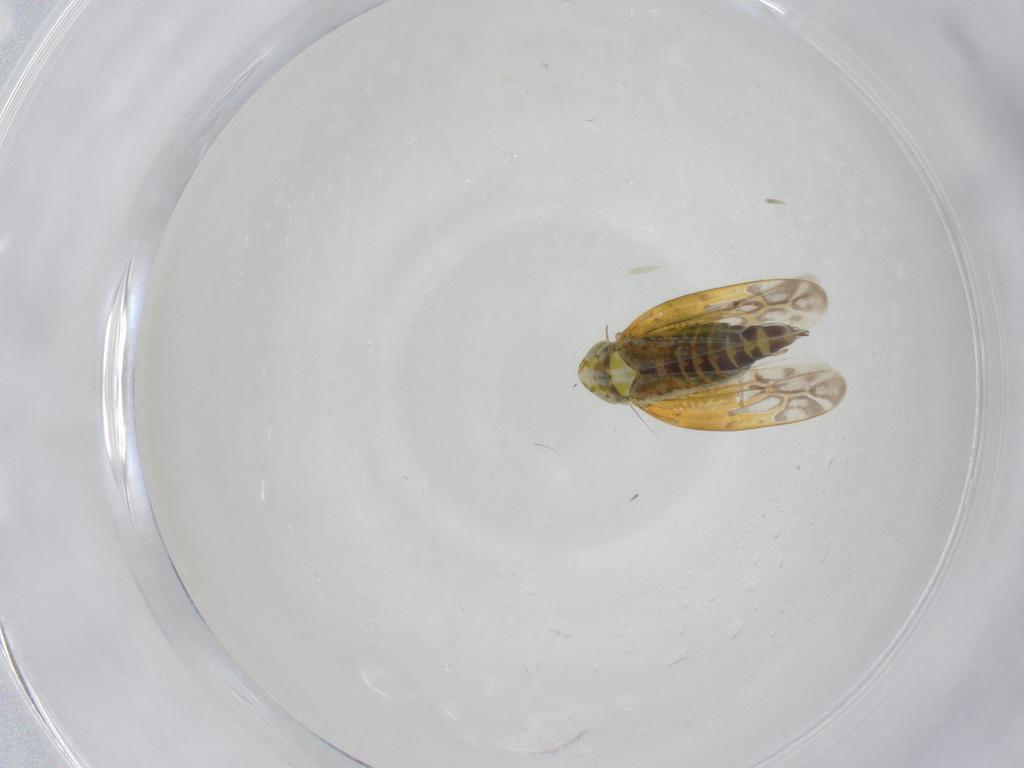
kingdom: Animalia
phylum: Arthropoda
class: Insecta
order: Hemiptera
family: Cicadellidae
